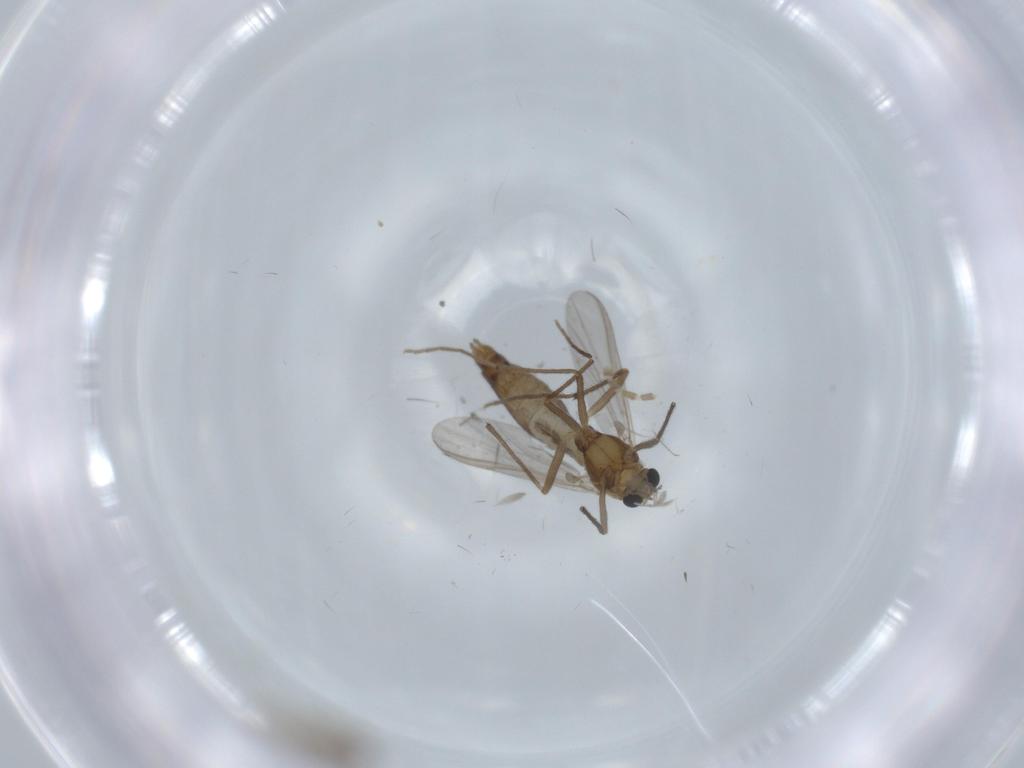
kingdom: Animalia
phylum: Arthropoda
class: Insecta
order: Diptera
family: Chironomidae
